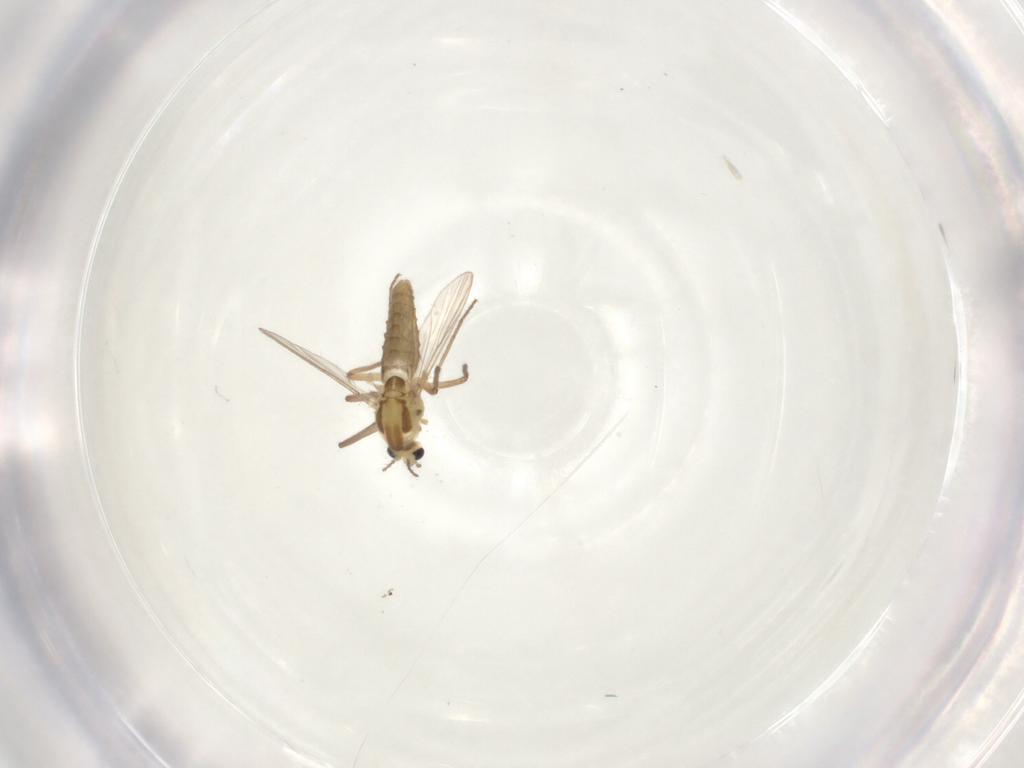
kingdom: Animalia
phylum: Arthropoda
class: Insecta
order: Diptera
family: Chironomidae
